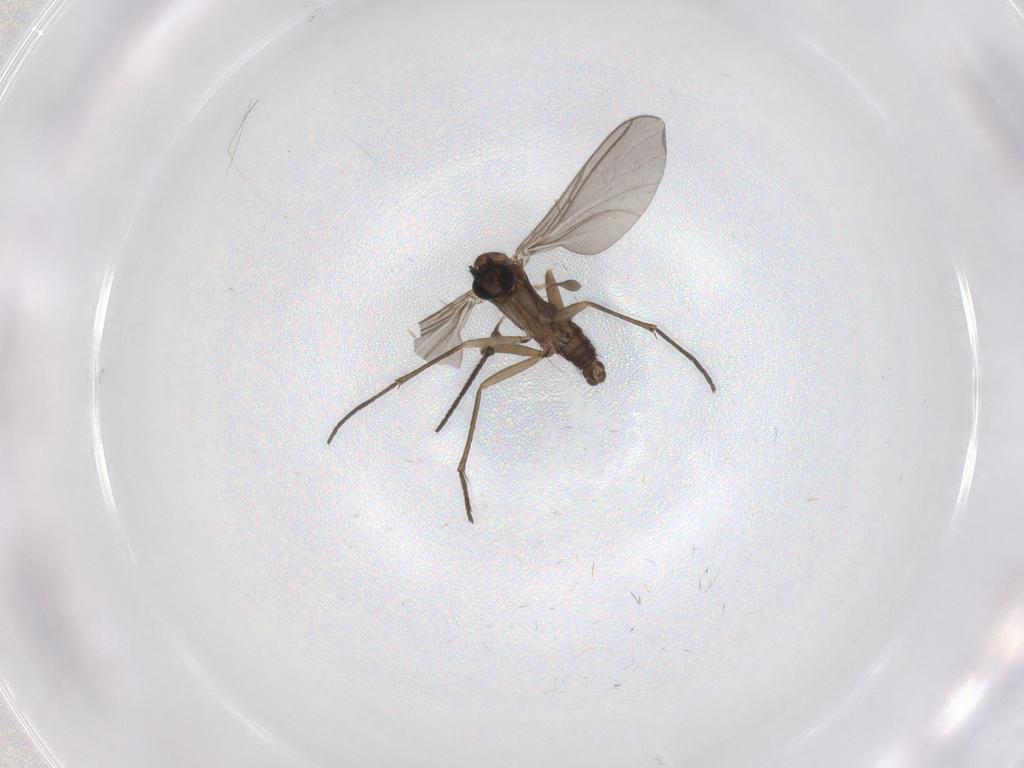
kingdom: Animalia
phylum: Arthropoda
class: Insecta
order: Diptera
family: Sciaridae
